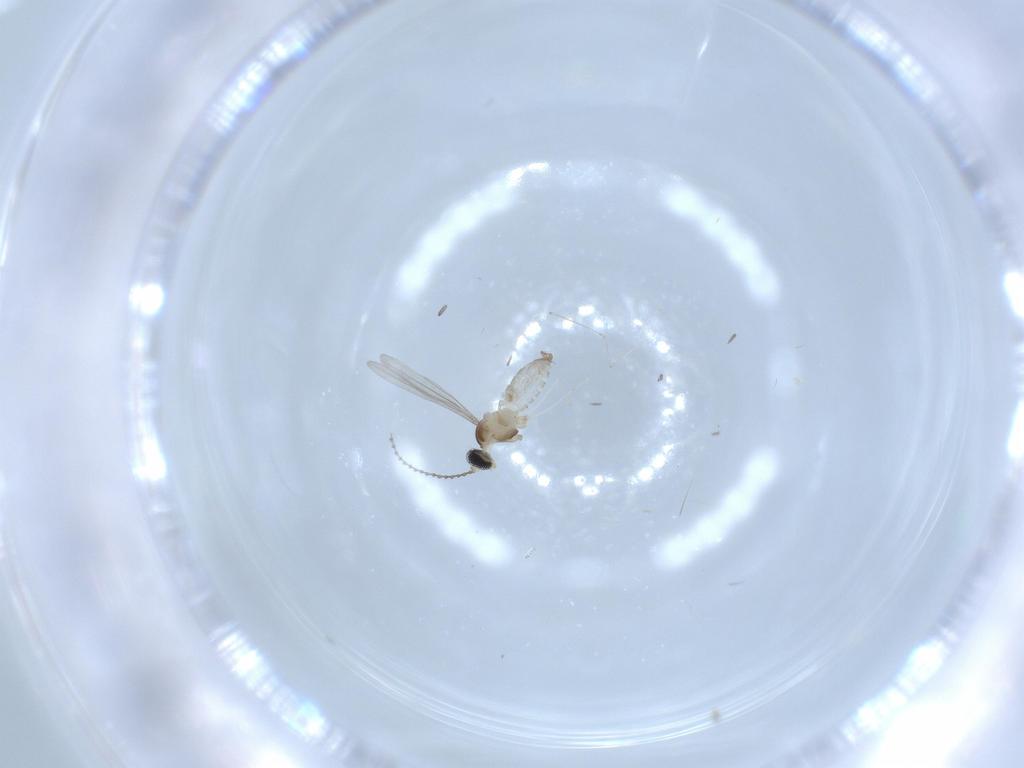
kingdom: Animalia
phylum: Arthropoda
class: Insecta
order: Diptera
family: Cecidomyiidae
